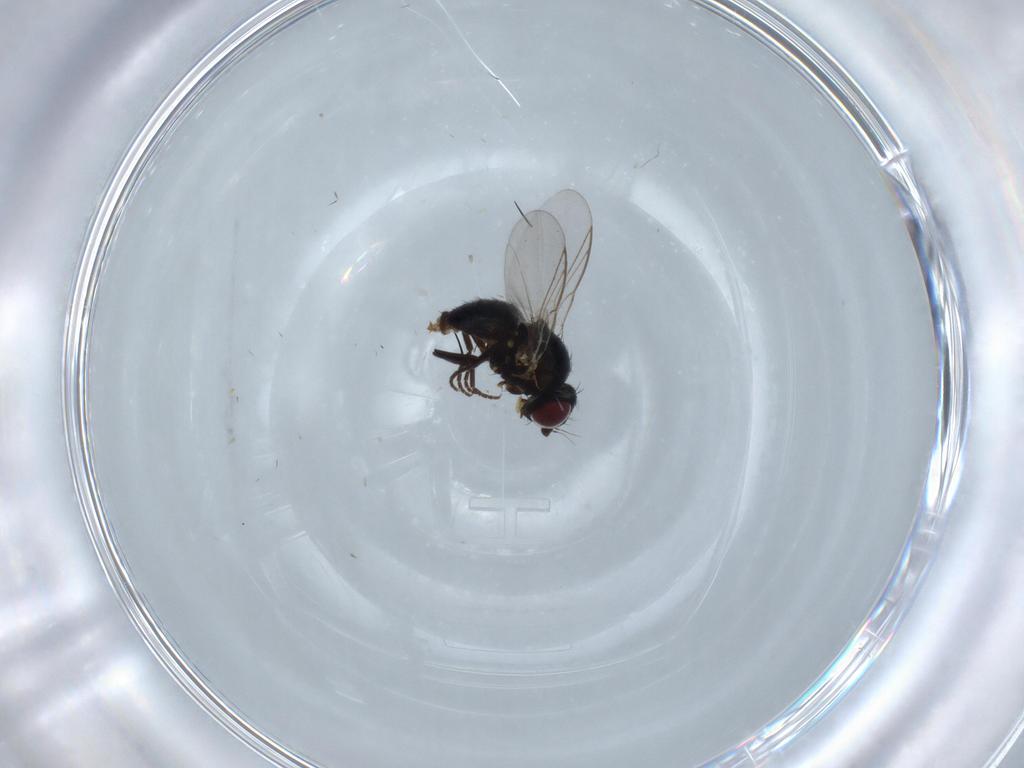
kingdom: Animalia
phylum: Arthropoda
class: Insecta
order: Diptera
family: Agromyzidae
